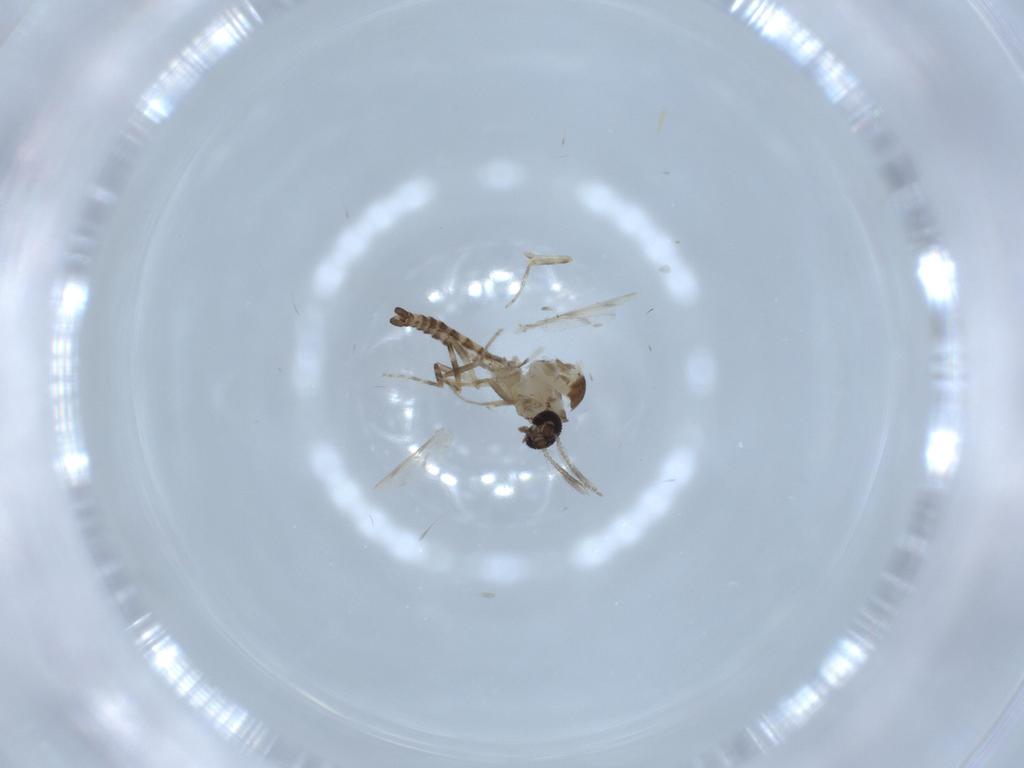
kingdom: Animalia
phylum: Arthropoda
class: Insecta
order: Diptera
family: Ceratopogonidae
